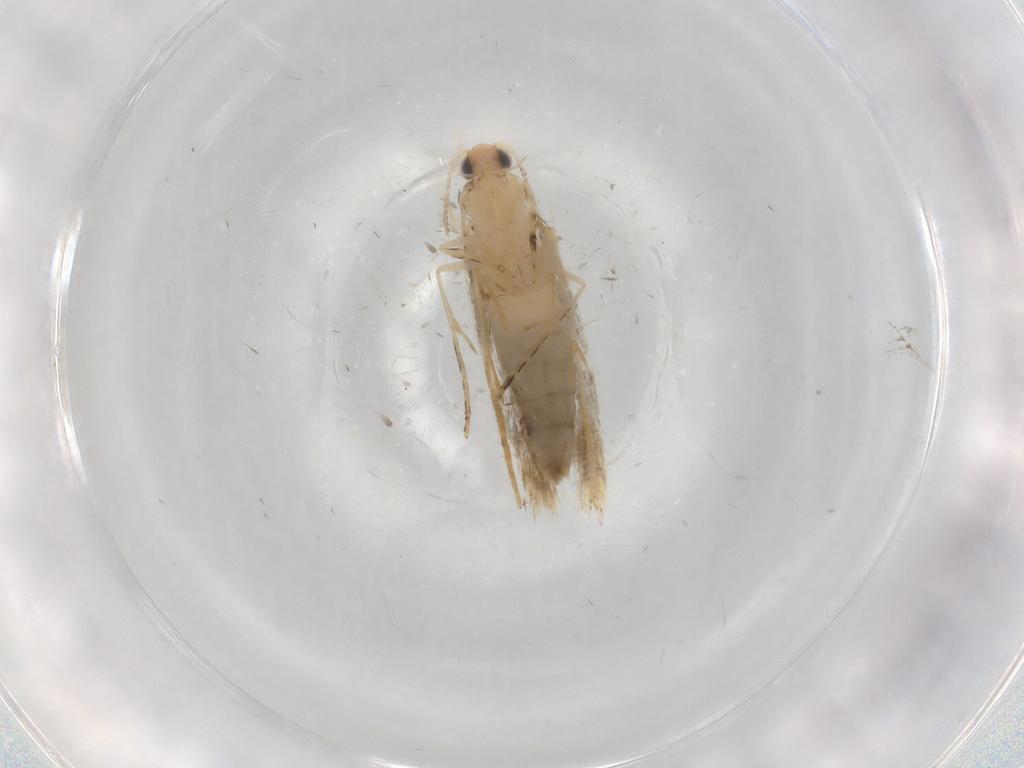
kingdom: Animalia
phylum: Arthropoda
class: Insecta
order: Lepidoptera
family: Tineidae
